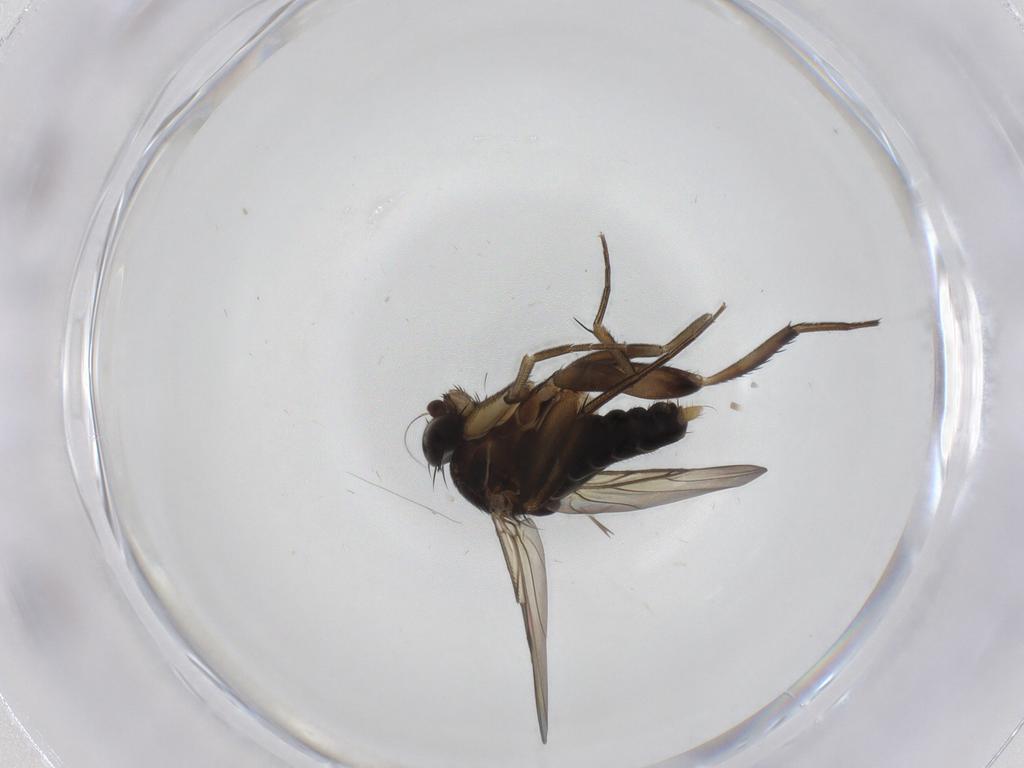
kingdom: Animalia
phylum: Arthropoda
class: Insecta
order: Diptera
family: Phoridae
